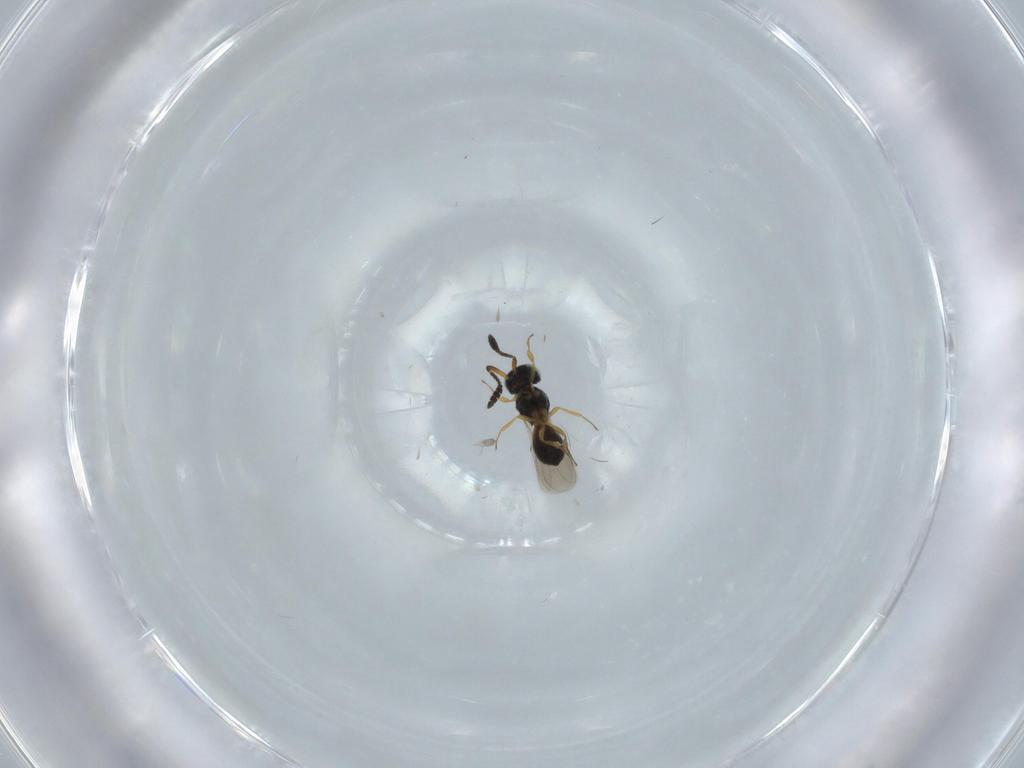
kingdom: Animalia
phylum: Arthropoda
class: Insecta
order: Hymenoptera
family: Scelionidae
